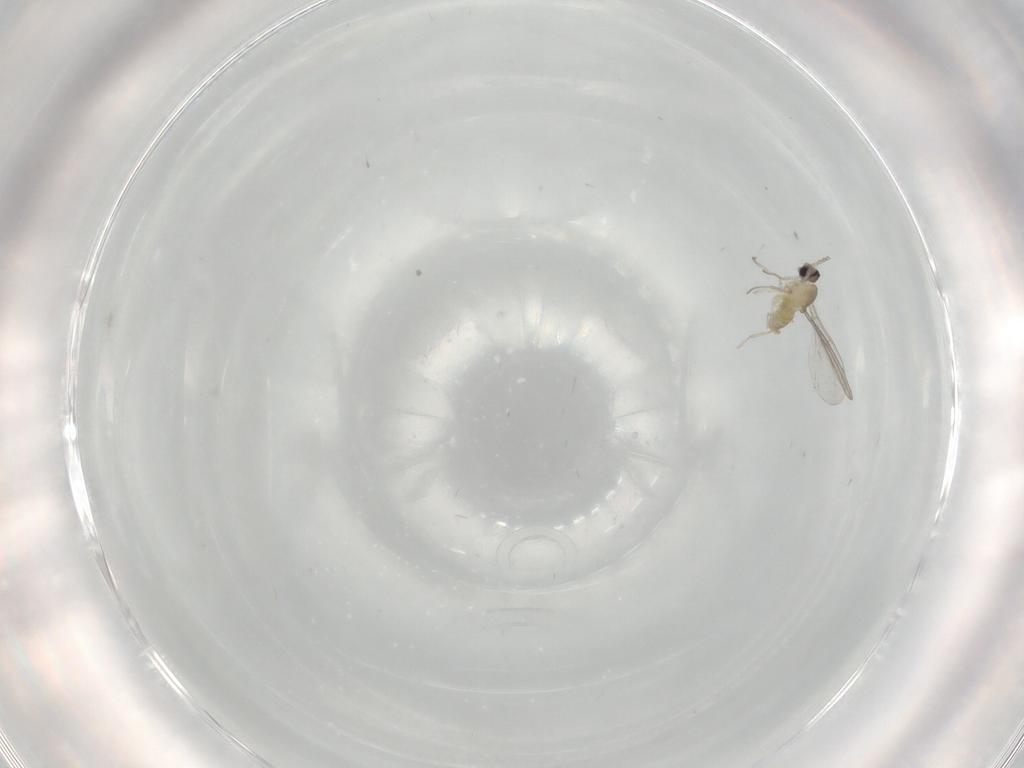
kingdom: Animalia
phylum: Arthropoda
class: Insecta
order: Diptera
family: Cecidomyiidae
